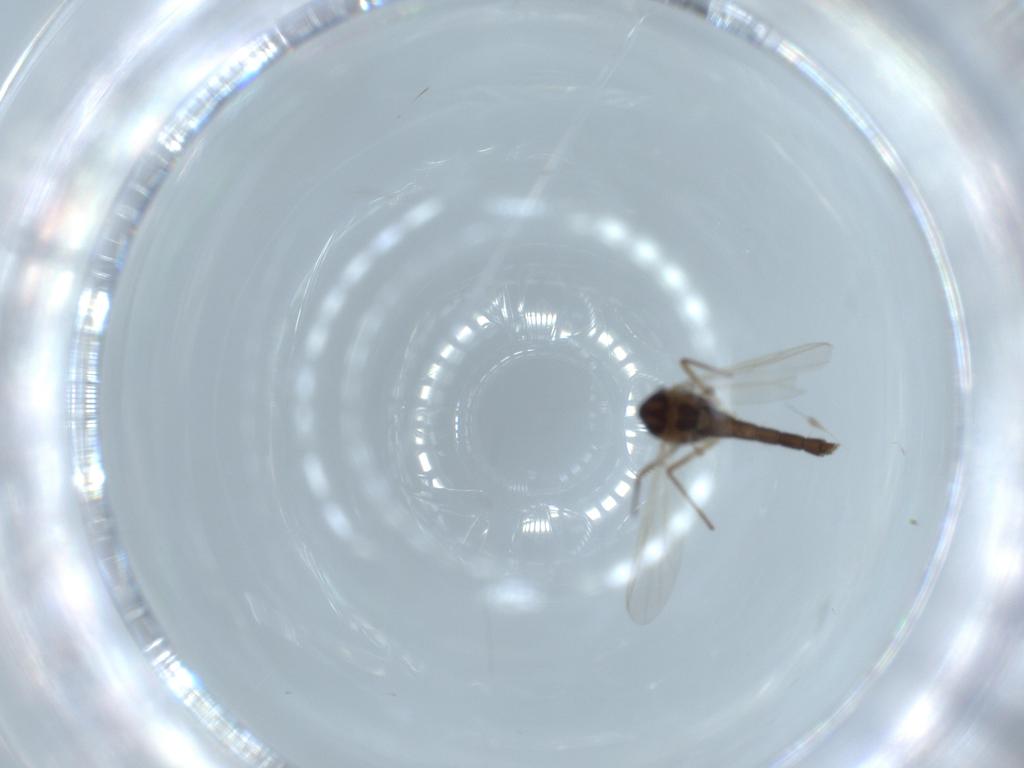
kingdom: Animalia
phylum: Arthropoda
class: Insecta
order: Diptera
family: Chironomidae
